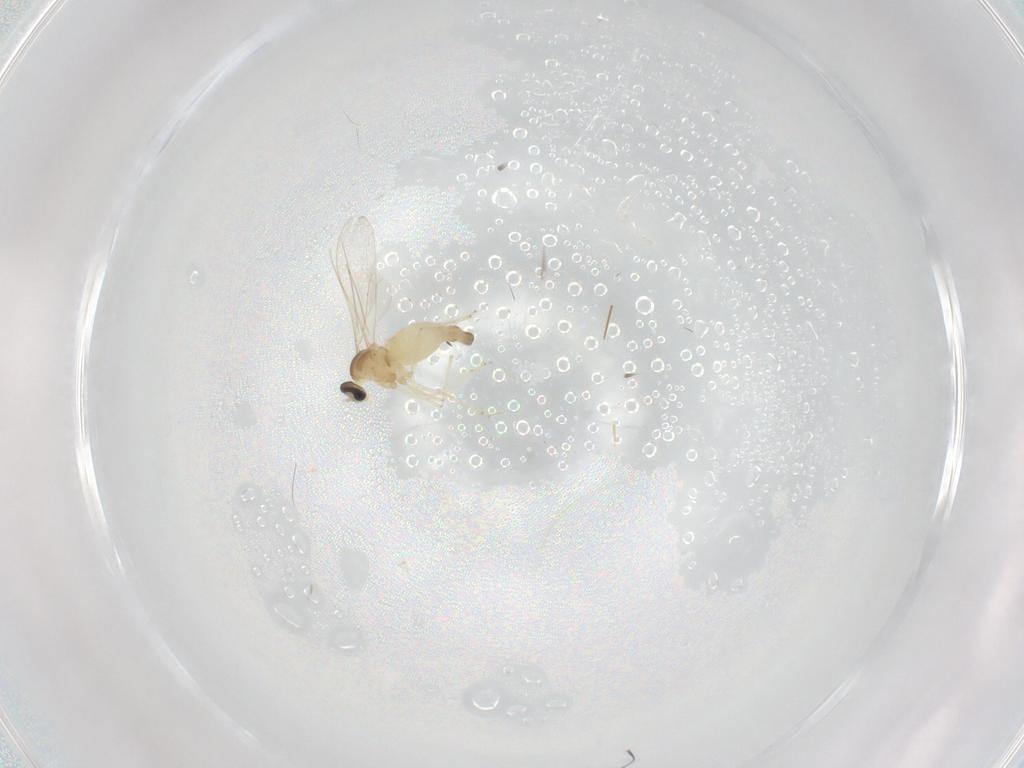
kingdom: Animalia
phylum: Arthropoda
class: Insecta
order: Diptera
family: Cecidomyiidae
